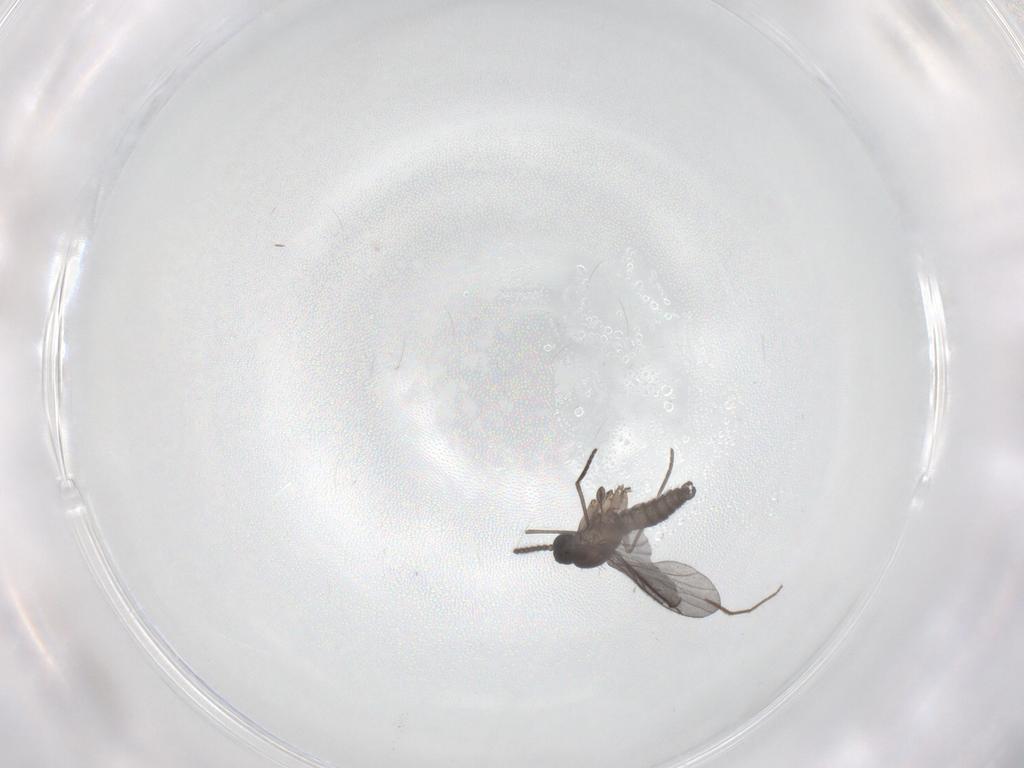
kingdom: Animalia
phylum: Arthropoda
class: Insecta
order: Diptera
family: Chironomidae
